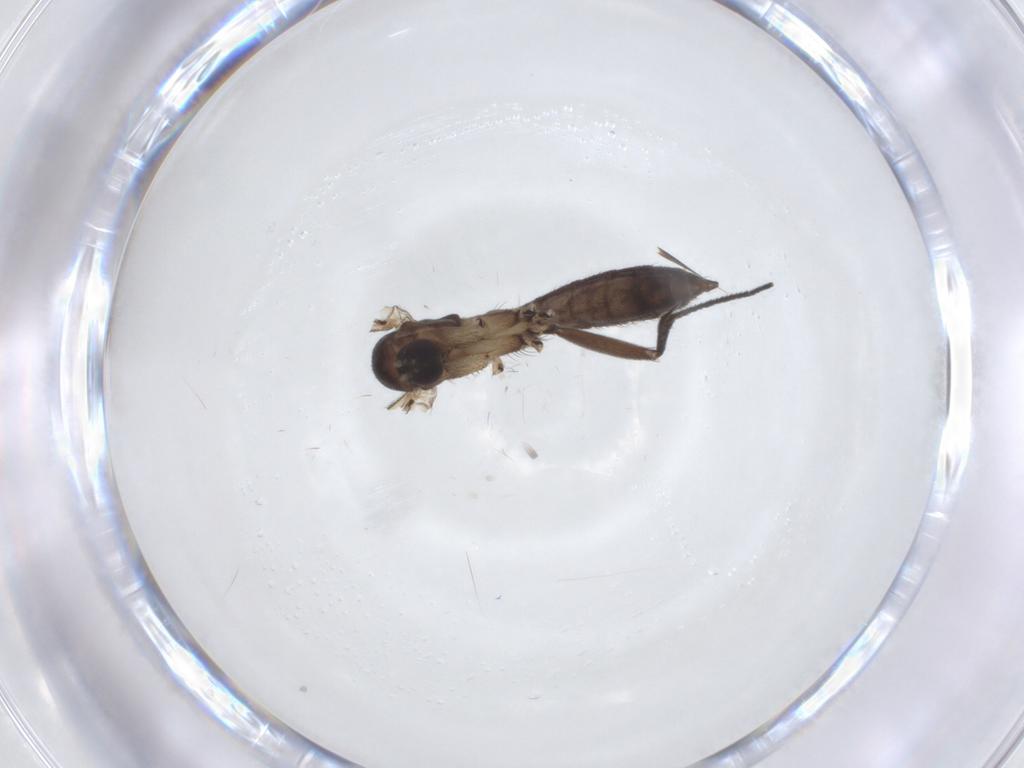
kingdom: Animalia
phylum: Arthropoda
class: Insecta
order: Diptera
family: Mycetophilidae
